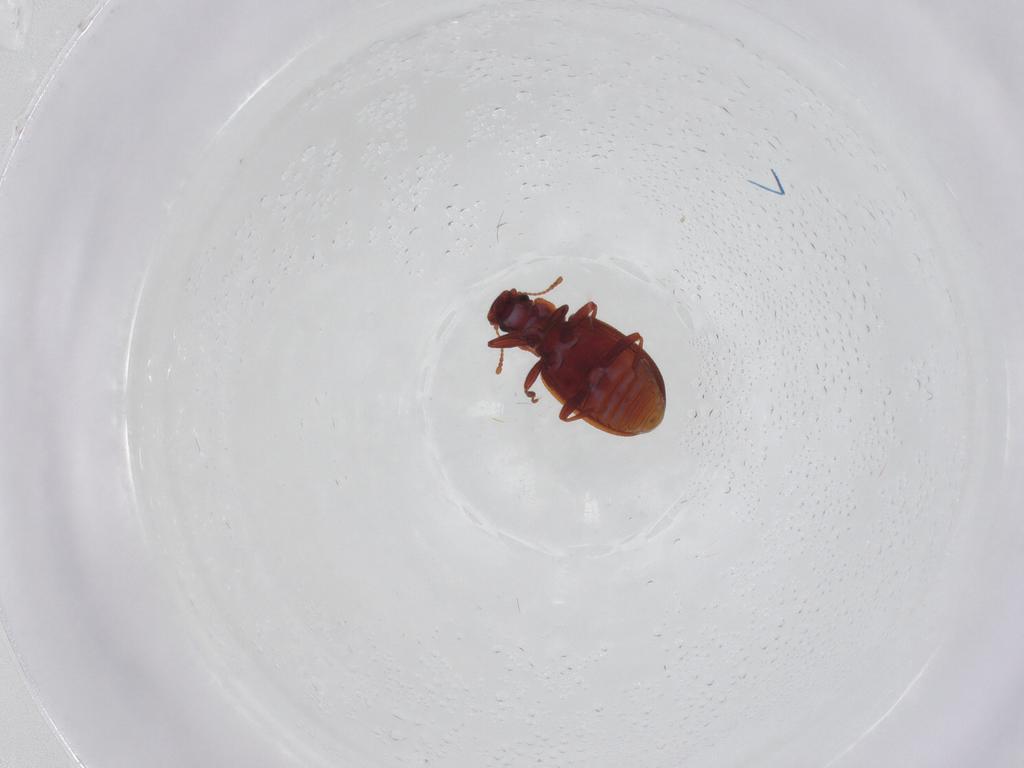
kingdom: Animalia
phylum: Arthropoda
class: Insecta
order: Coleoptera
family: Latridiidae
